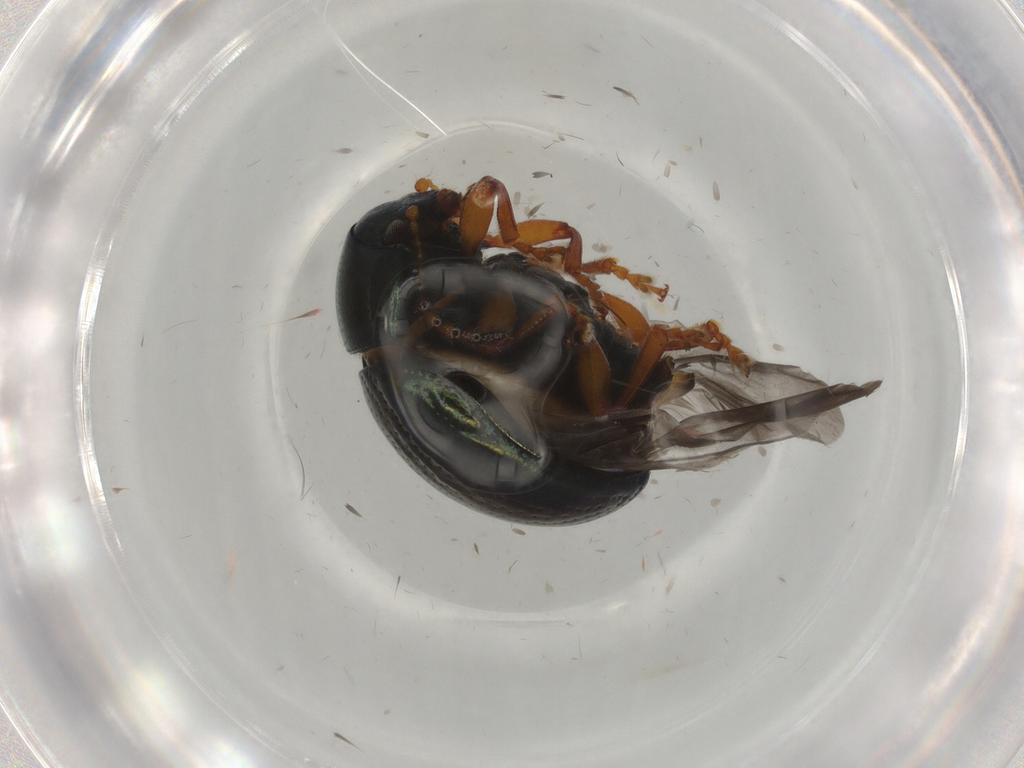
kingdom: Animalia
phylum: Arthropoda
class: Insecta
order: Coleoptera
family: Chrysomelidae
